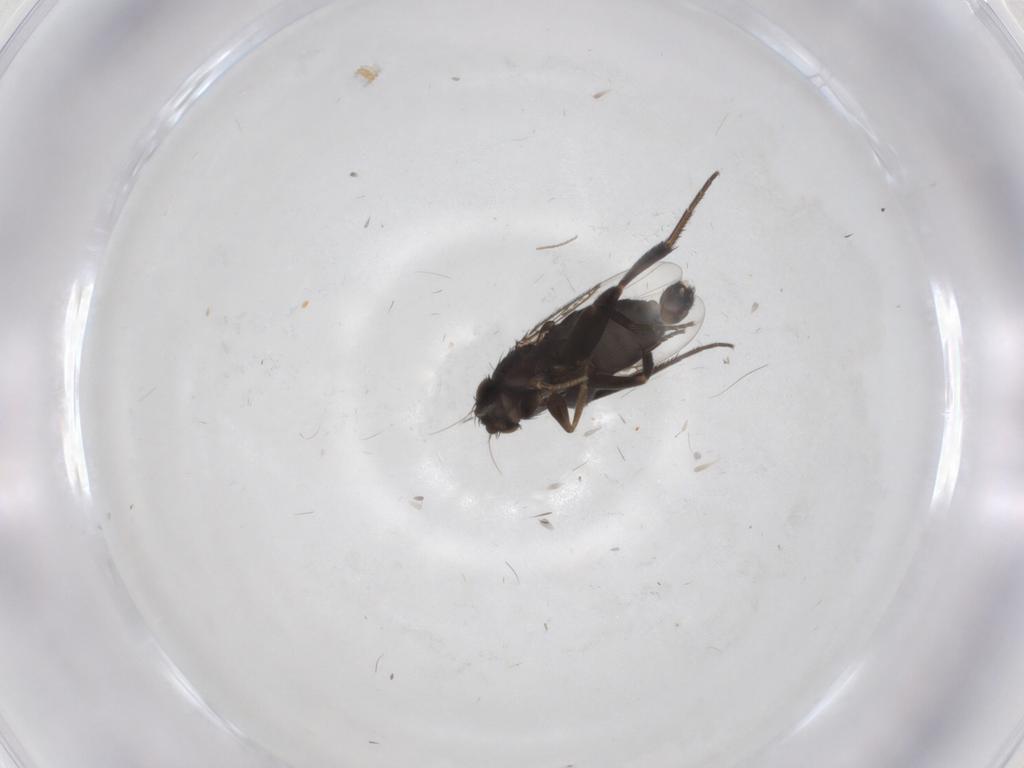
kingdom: Animalia
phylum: Arthropoda
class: Insecta
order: Diptera
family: Phoridae
